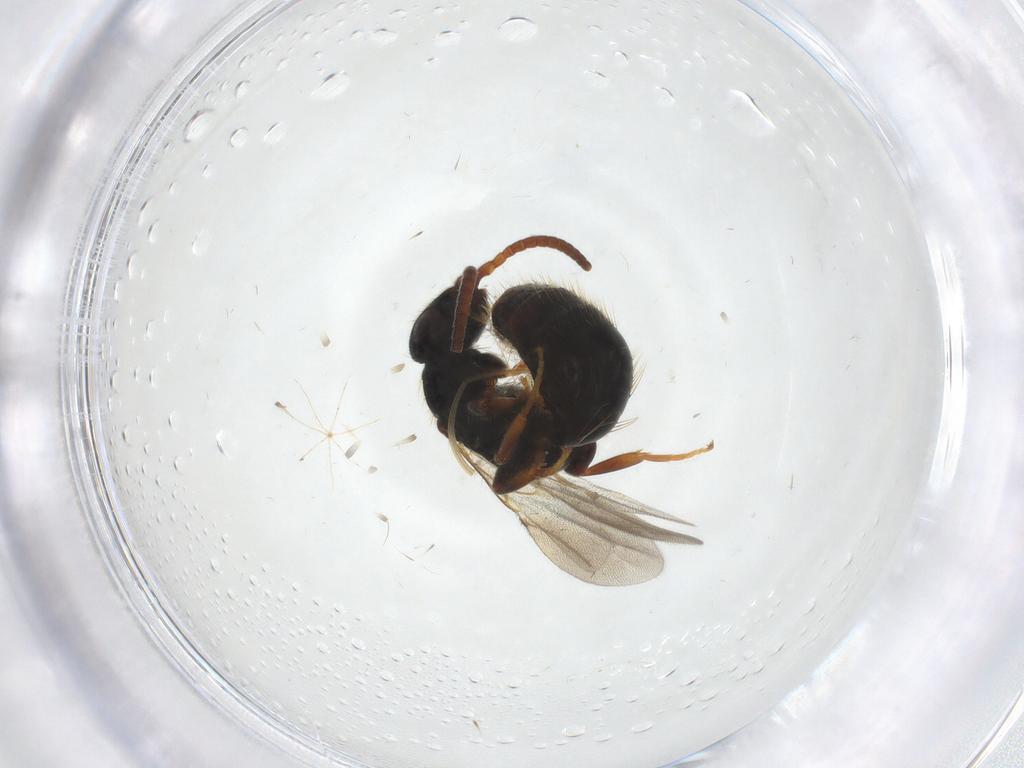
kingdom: Animalia
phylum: Arthropoda
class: Insecta
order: Hymenoptera
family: Bethylidae
